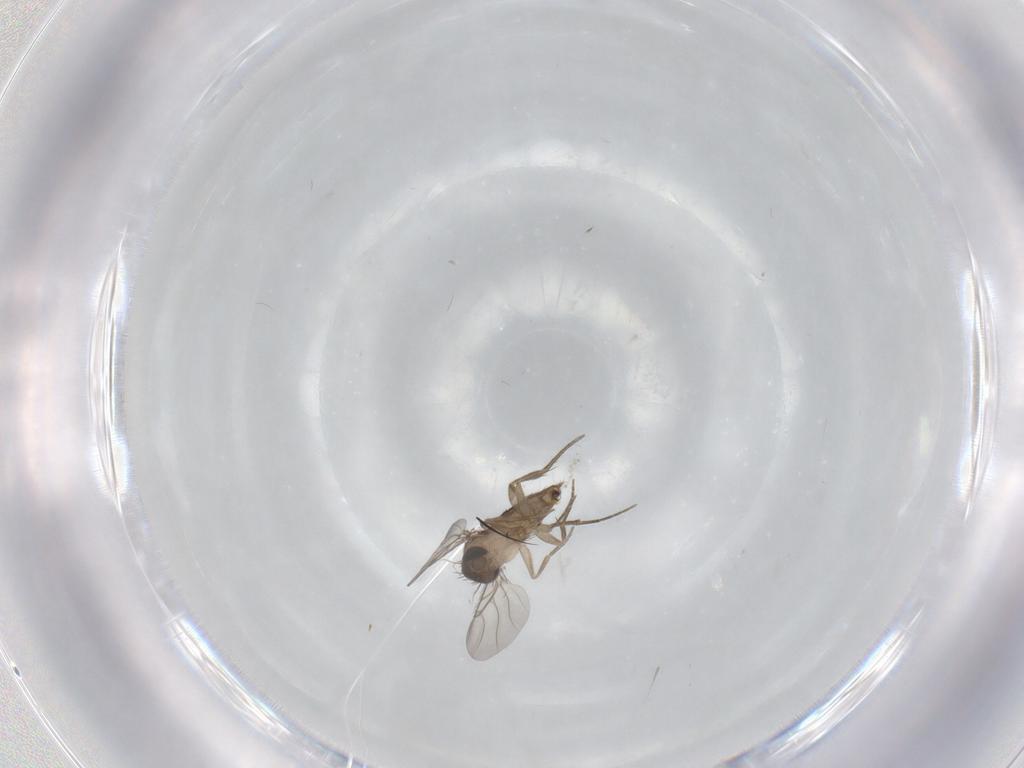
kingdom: Animalia
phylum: Arthropoda
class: Insecta
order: Diptera
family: Phoridae
